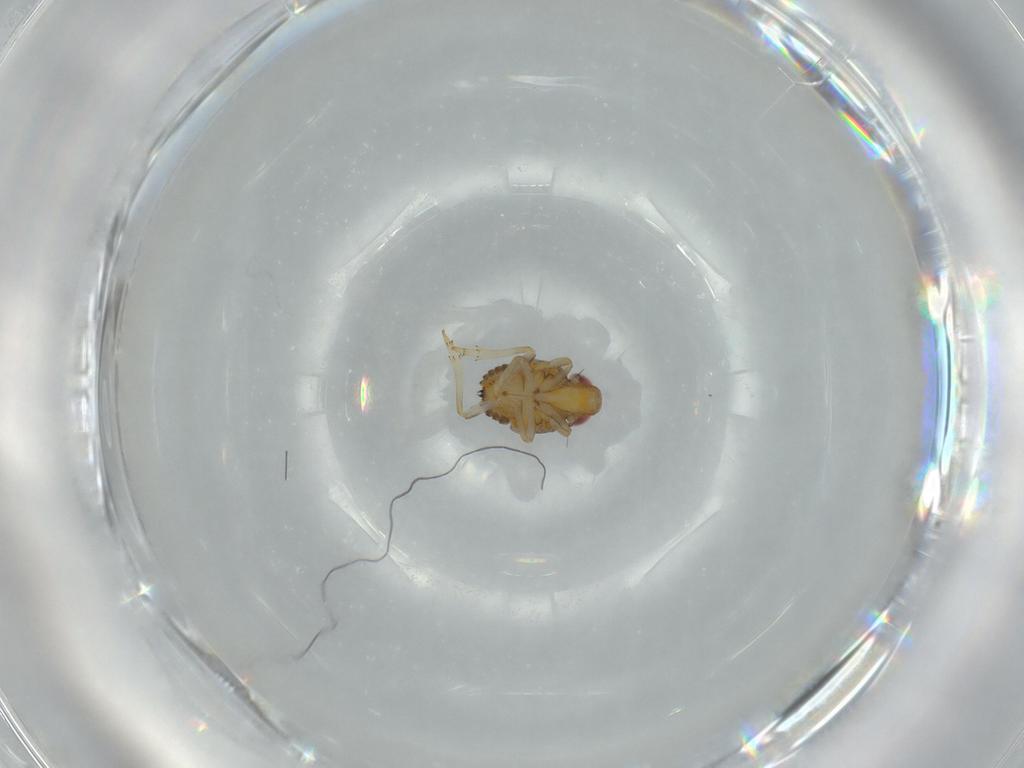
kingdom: Animalia
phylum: Arthropoda
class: Insecta
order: Hemiptera
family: Issidae
